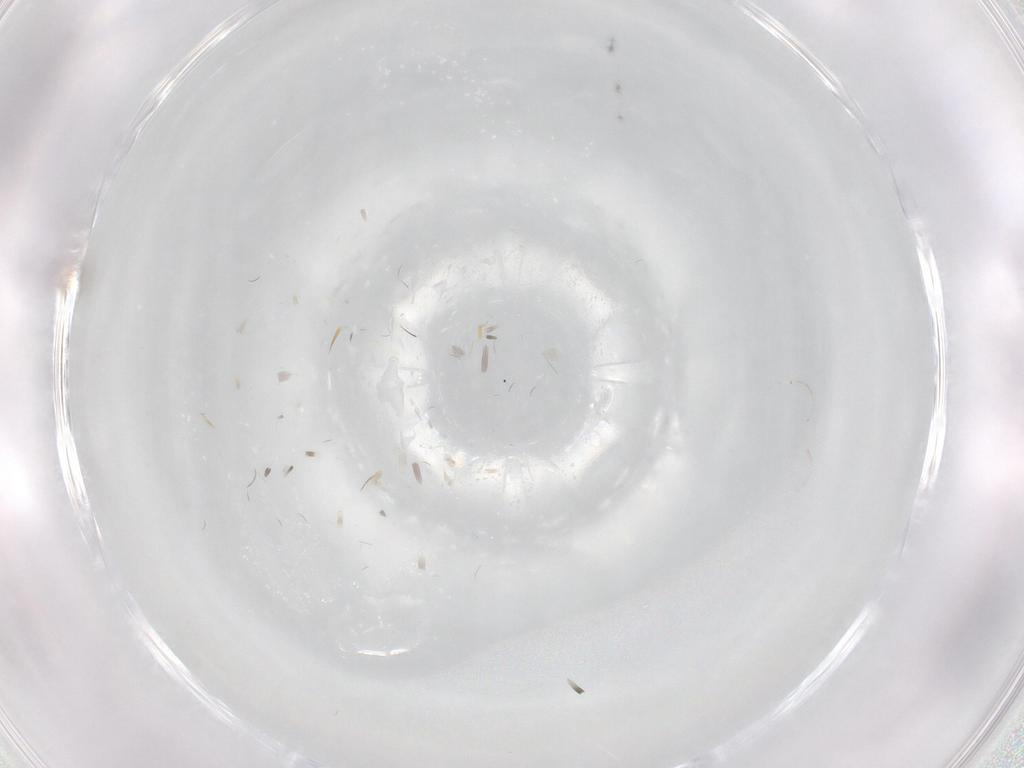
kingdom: Animalia
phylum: Arthropoda
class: Insecta
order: Diptera
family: Chironomidae
